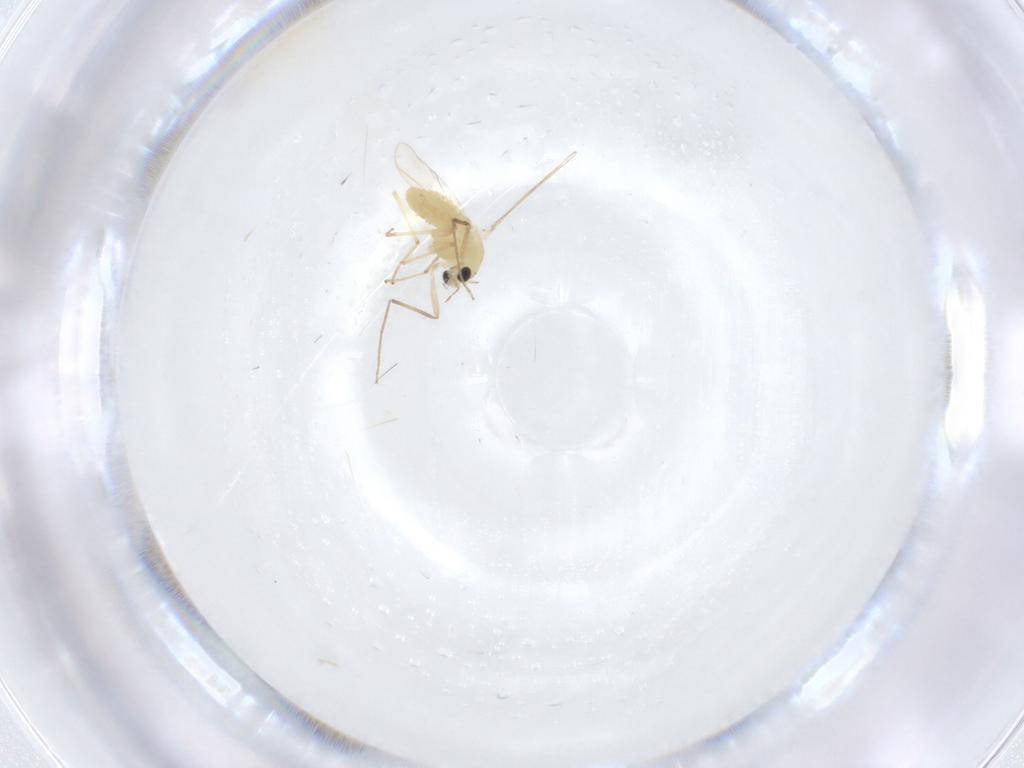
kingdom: Animalia
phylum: Arthropoda
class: Insecta
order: Diptera
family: Chironomidae
